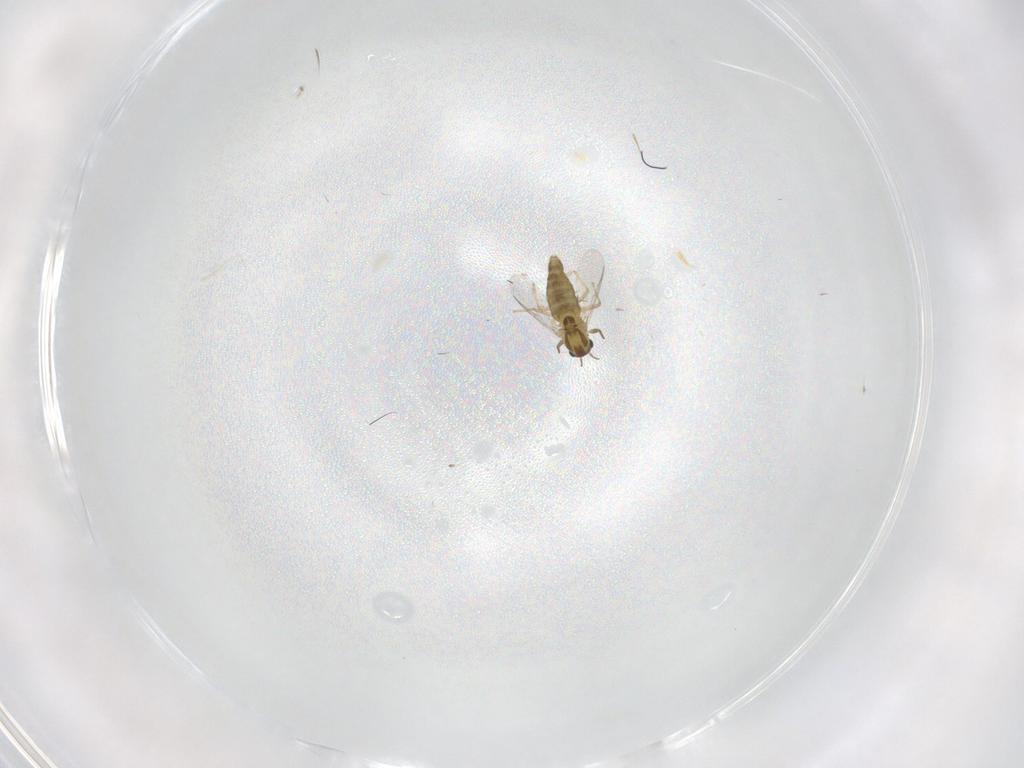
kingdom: Animalia
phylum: Arthropoda
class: Insecta
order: Diptera
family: Chironomidae
